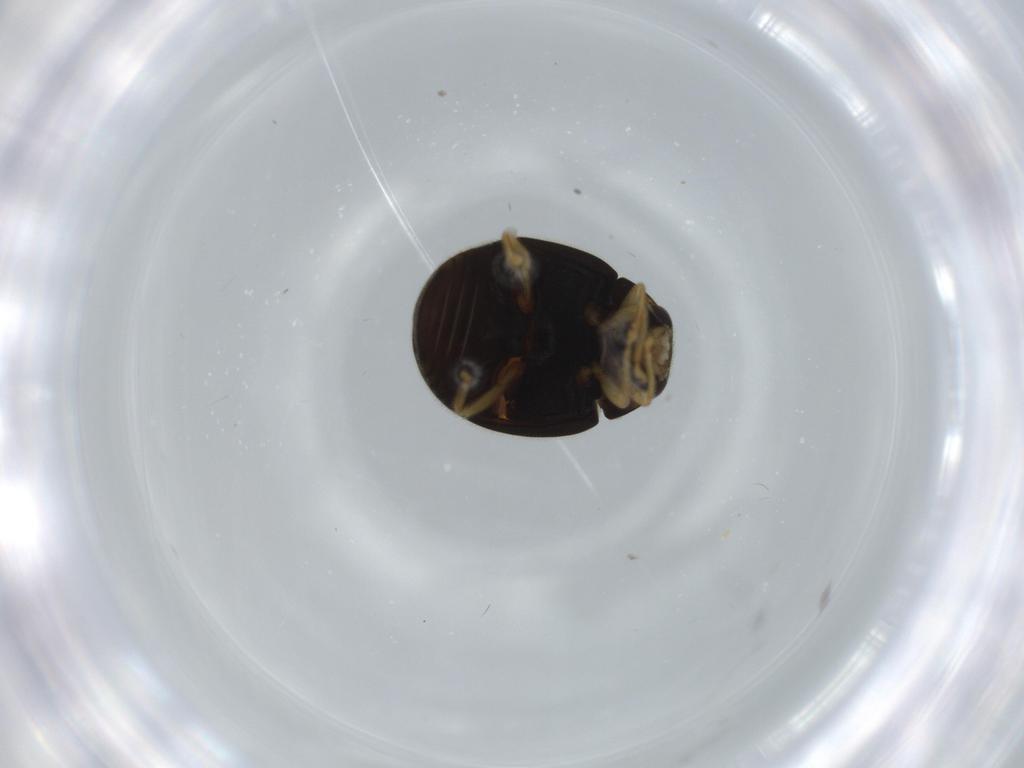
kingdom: Animalia
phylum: Arthropoda
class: Insecta
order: Coleoptera
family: Coccinellidae
